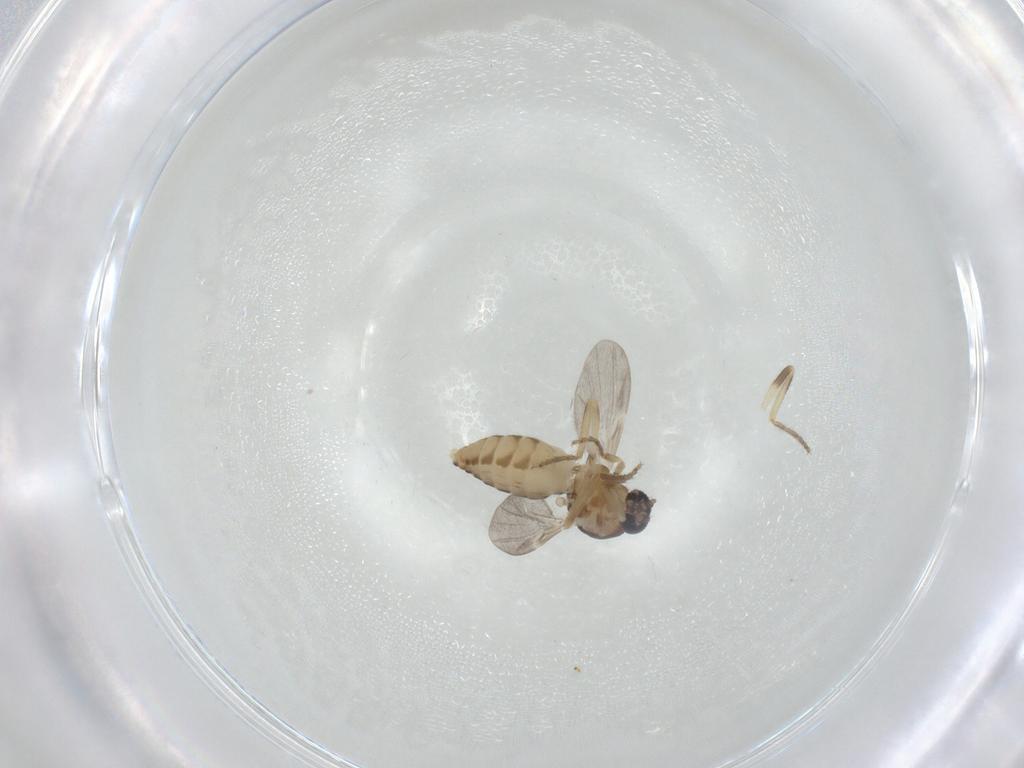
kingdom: Animalia
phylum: Arthropoda
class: Insecta
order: Diptera
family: Ceratopogonidae
